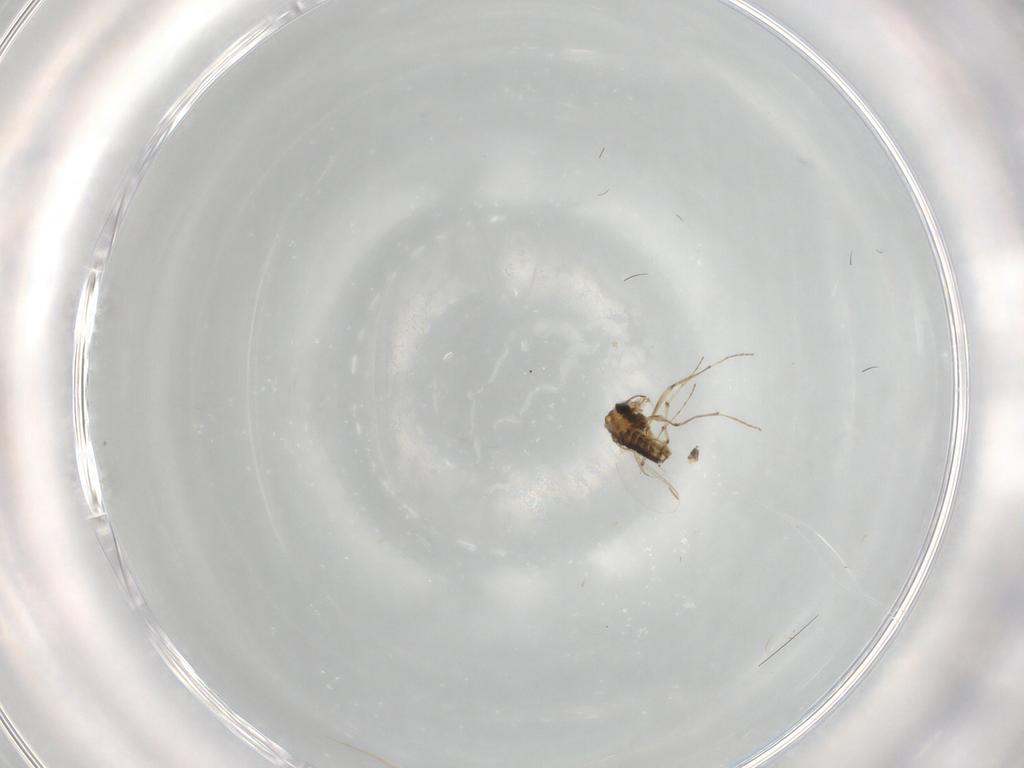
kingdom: Animalia
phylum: Arthropoda
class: Insecta
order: Diptera
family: Chironomidae
